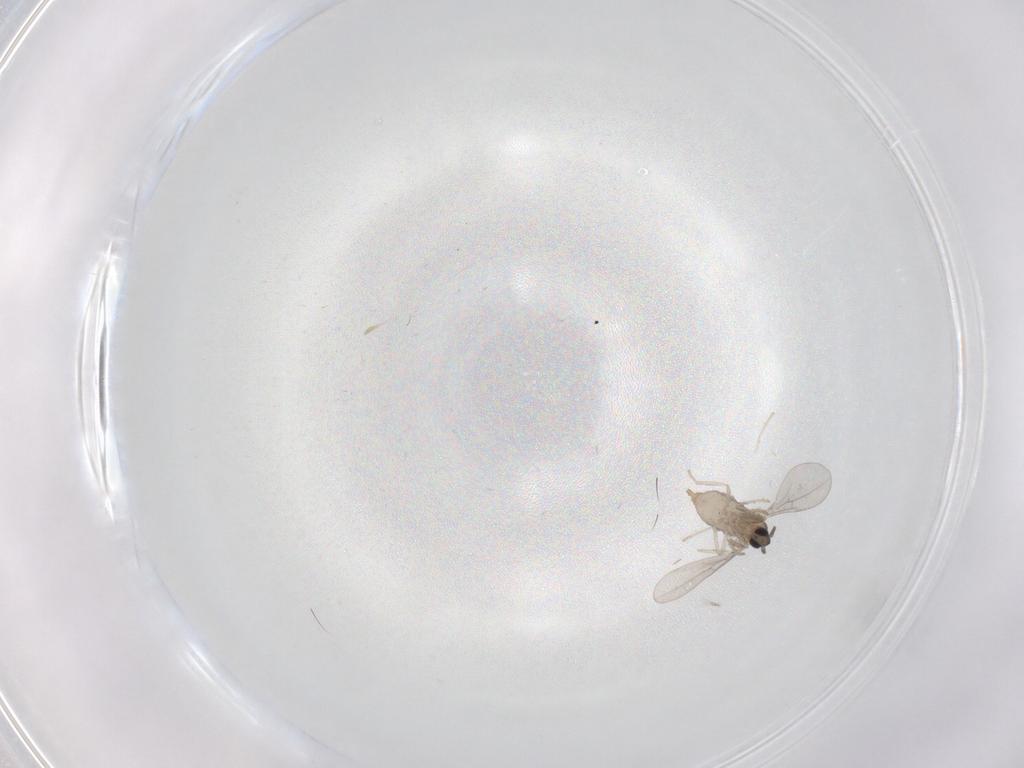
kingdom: Animalia
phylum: Arthropoda
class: Insecta
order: Diptera
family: Cecidomyiidae
